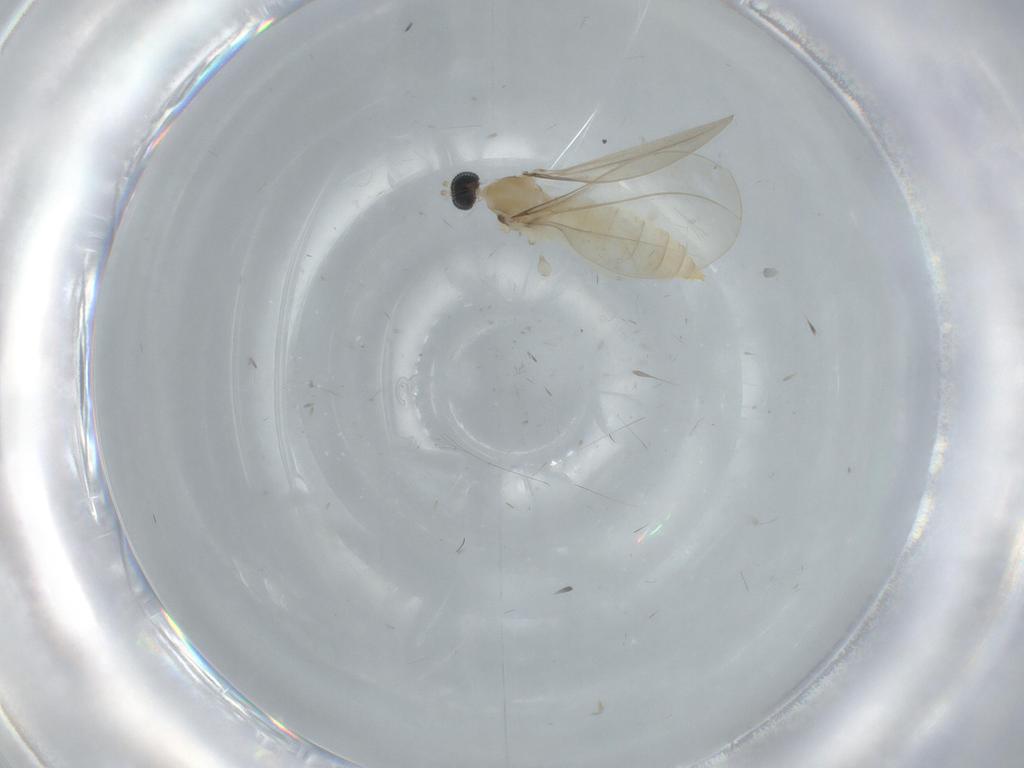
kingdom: Animalia
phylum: Arthropoda
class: Insecta
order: Diptera
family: Cecidomyiidae
